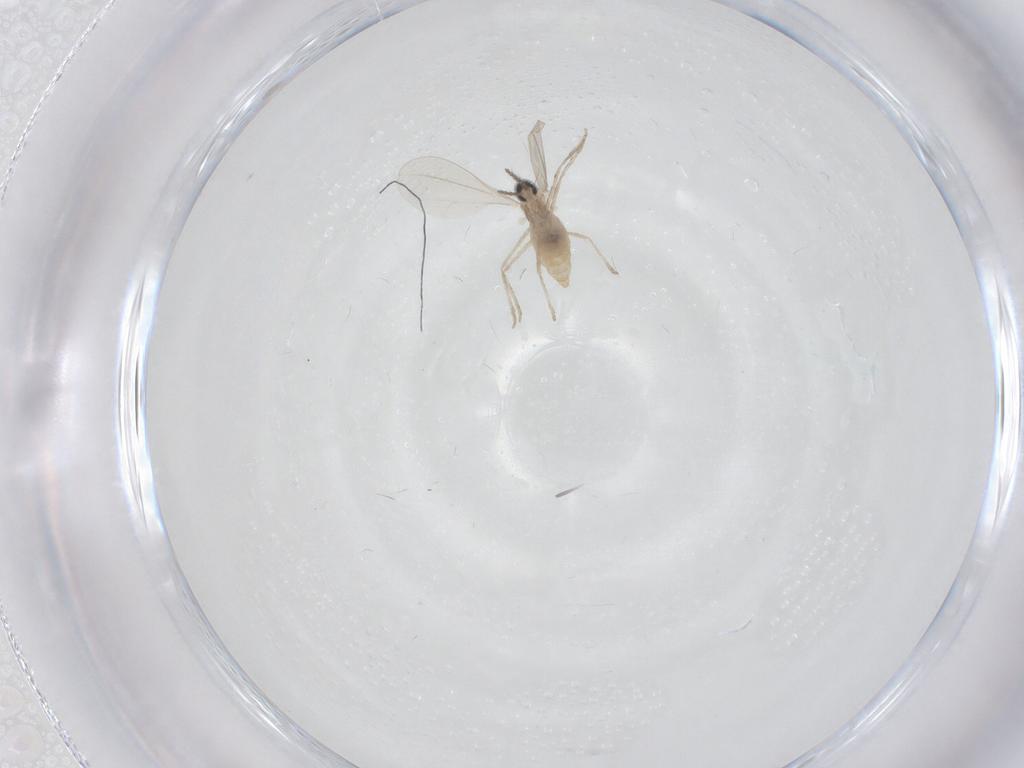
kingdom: Animalia
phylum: Arthropoda
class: Insecta
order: Diptera
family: Cecidomyiidae
